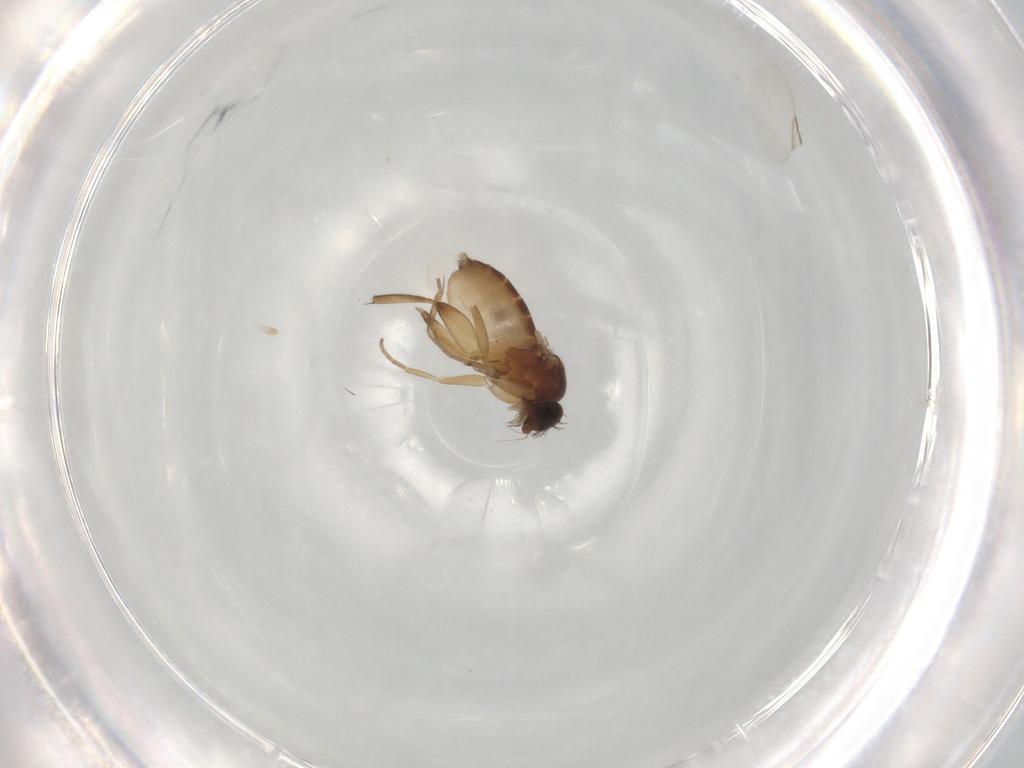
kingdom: Animalia
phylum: Arthropoda
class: Insecta
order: Diptera
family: Phoridae
